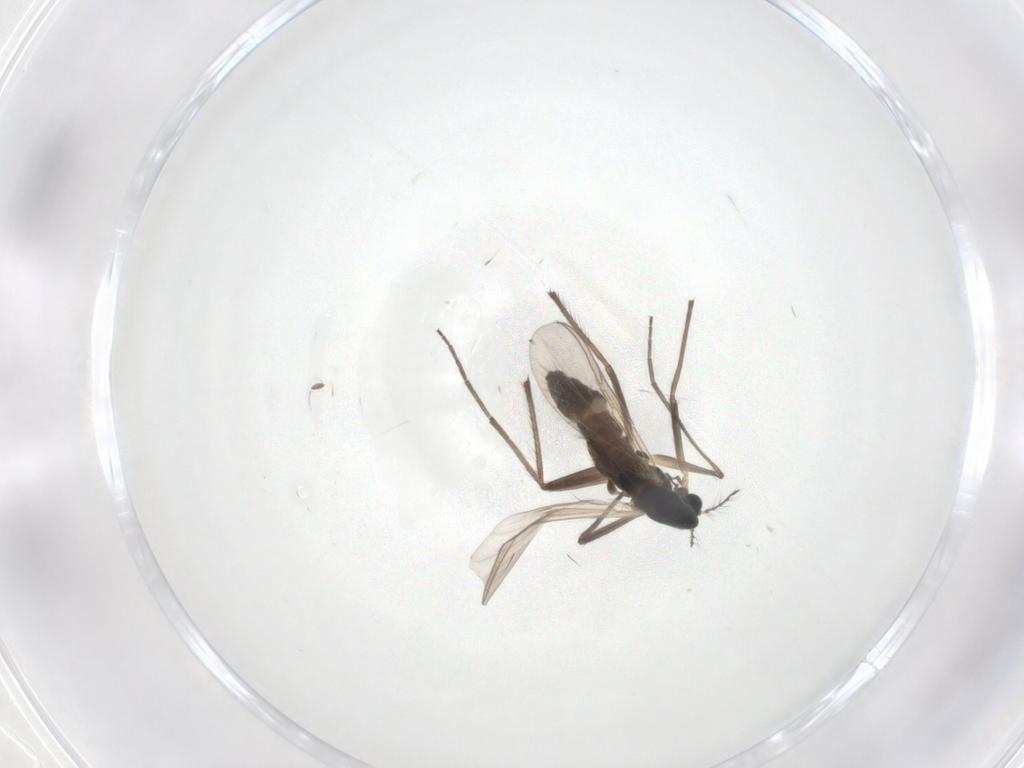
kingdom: Animalia
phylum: Arthropoda
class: Insecta
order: Diptera
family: Chironomidae
